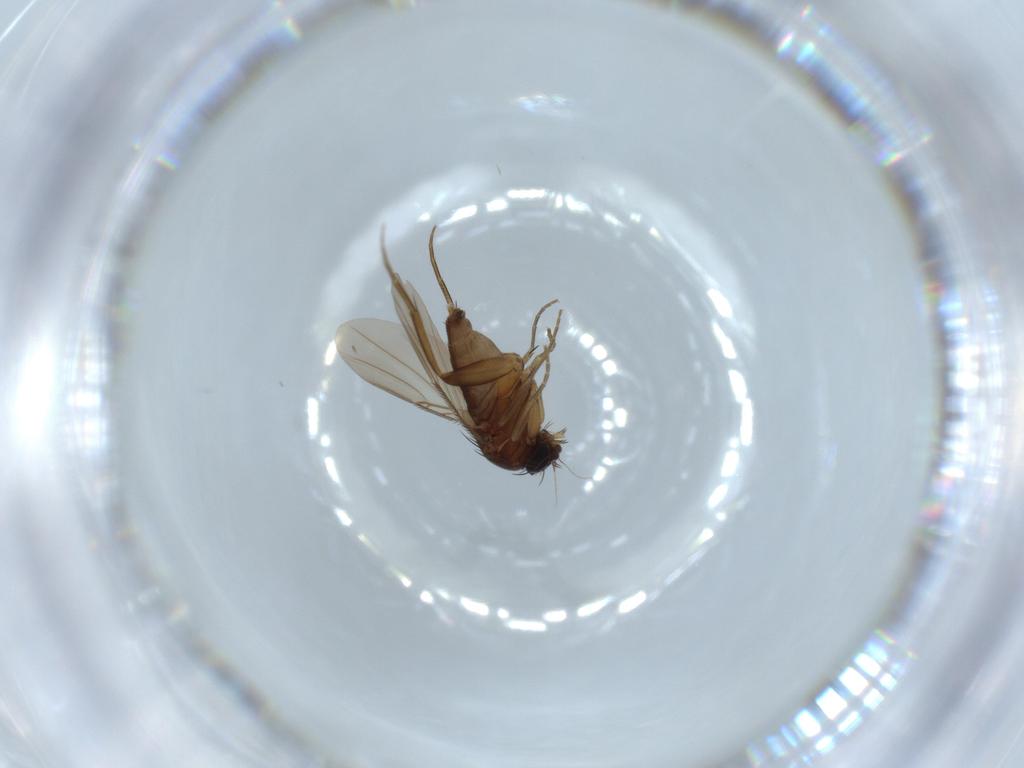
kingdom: Animalia
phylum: Arthropoda
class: Insecta
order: Diptera
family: Phoridae
